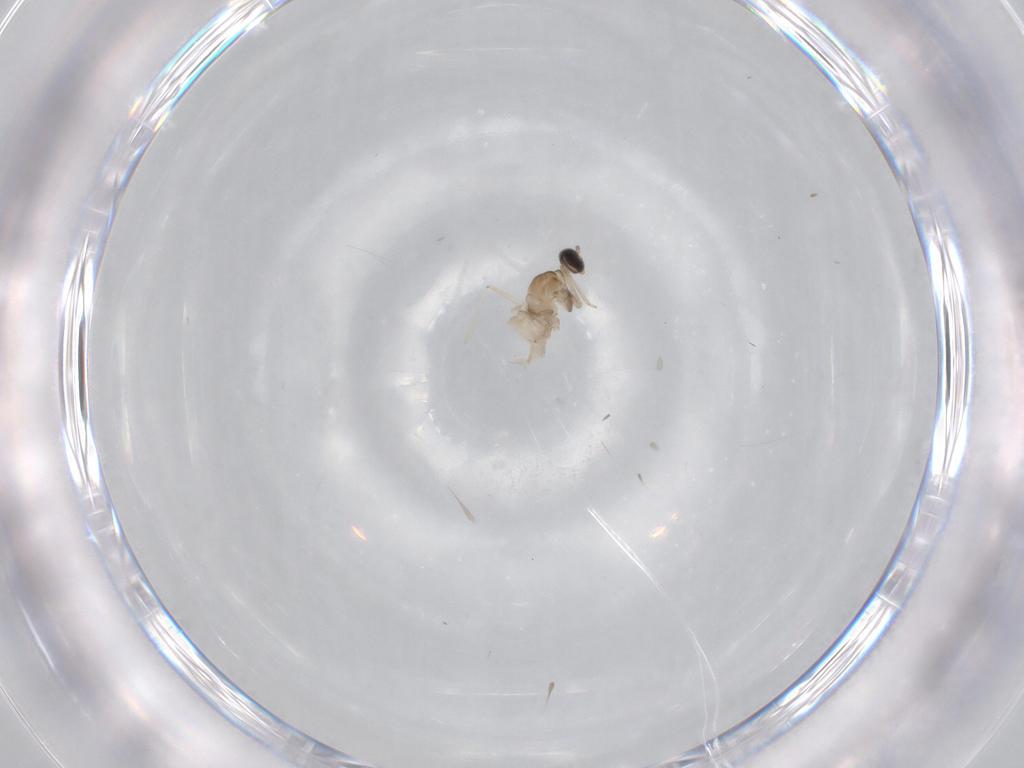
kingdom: Animalia
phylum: Arthropoda
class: Insecta
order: Diptera
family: Cecidomyiidae
